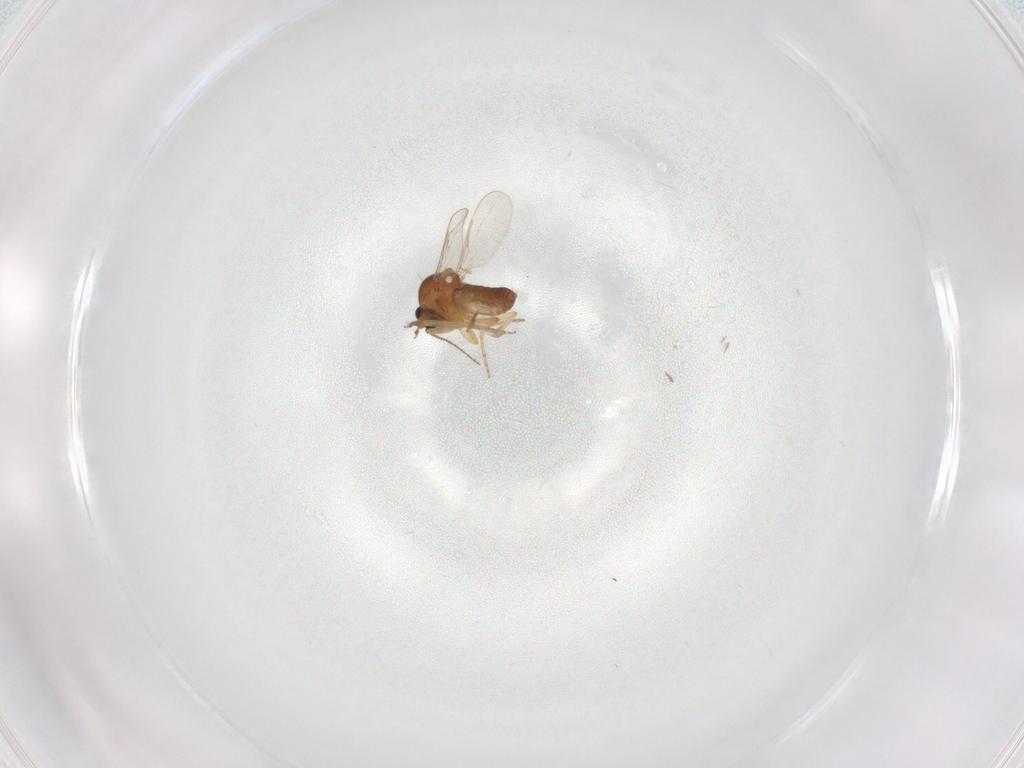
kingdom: Animalia
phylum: Arthropoda
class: Insecta
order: Diptera
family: Ceratopogonidae
